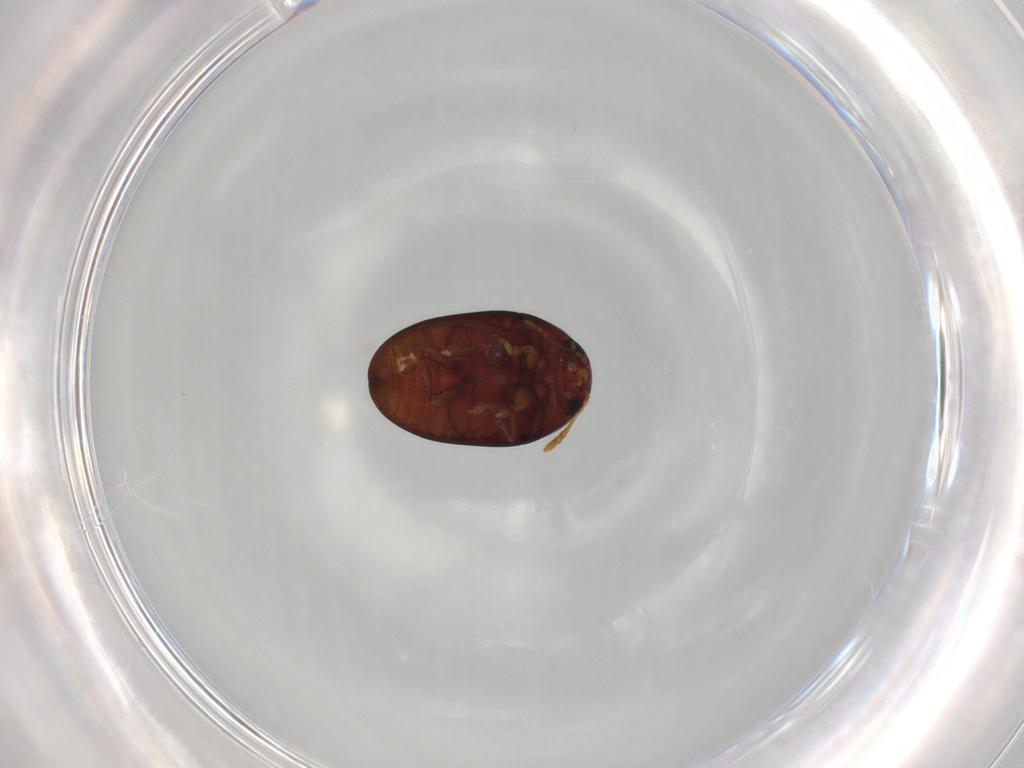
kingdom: Animalia
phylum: Arthropoda
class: Insecta
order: Coleoptera
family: Phalacridae
